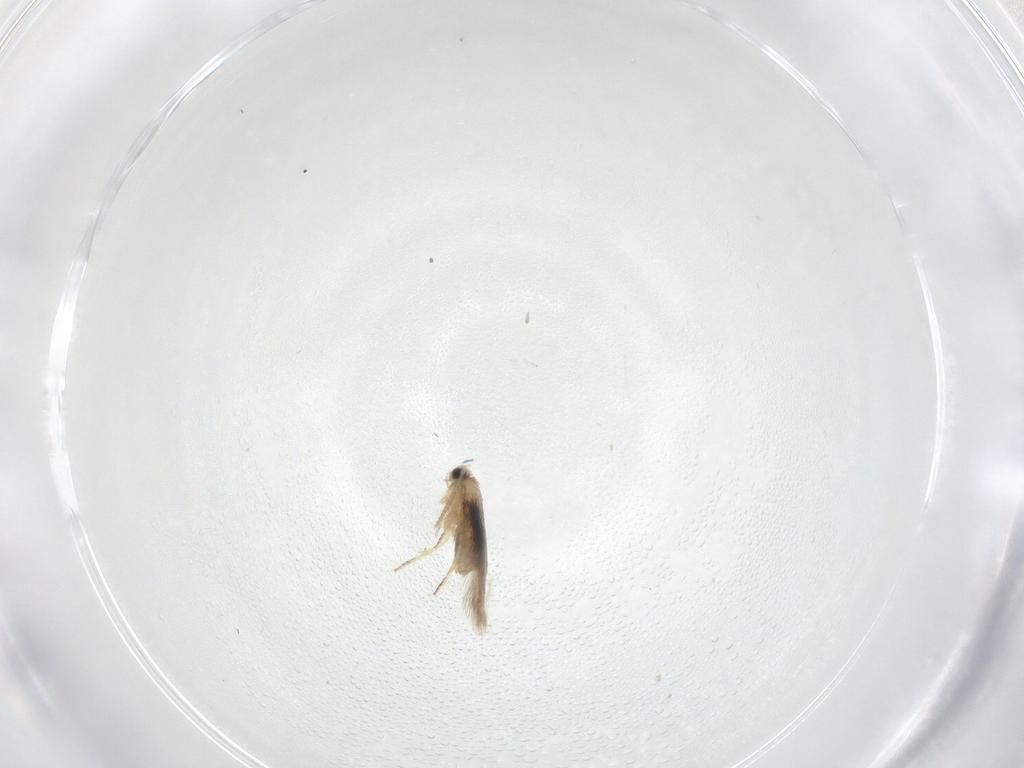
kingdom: Animalia
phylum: Arthropoda
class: Insecta
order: Lepidoptera
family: Nepticulidae
